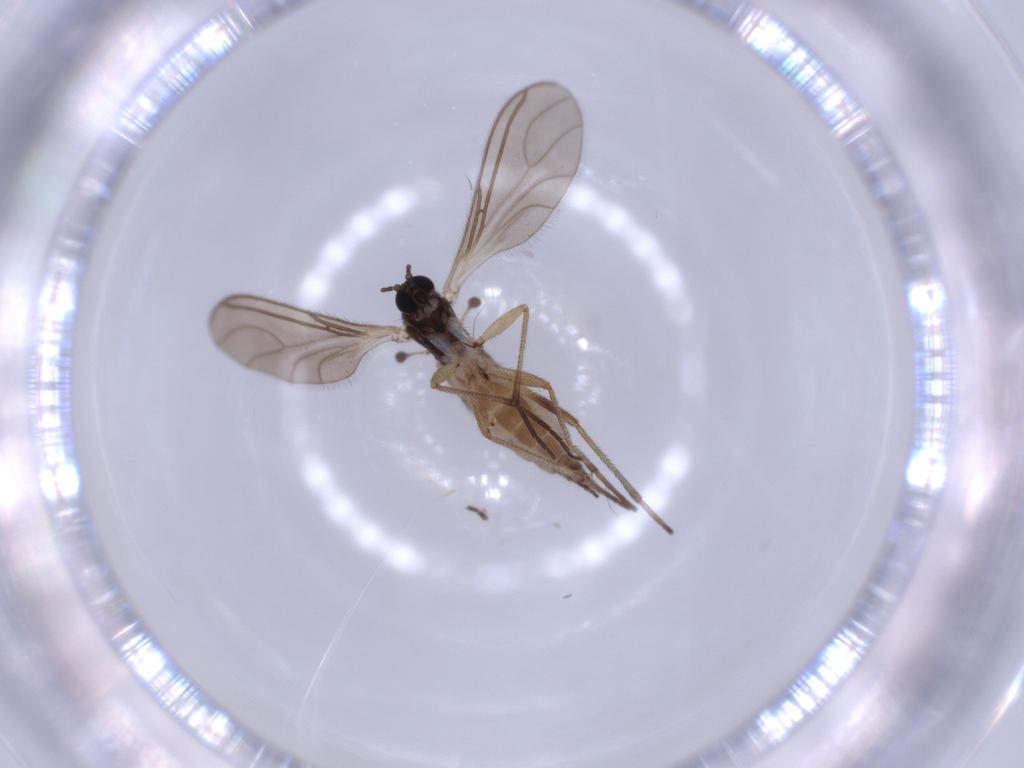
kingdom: Animalia
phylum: Arthropoda
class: Insecta
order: Diptera
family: Sciaridae
